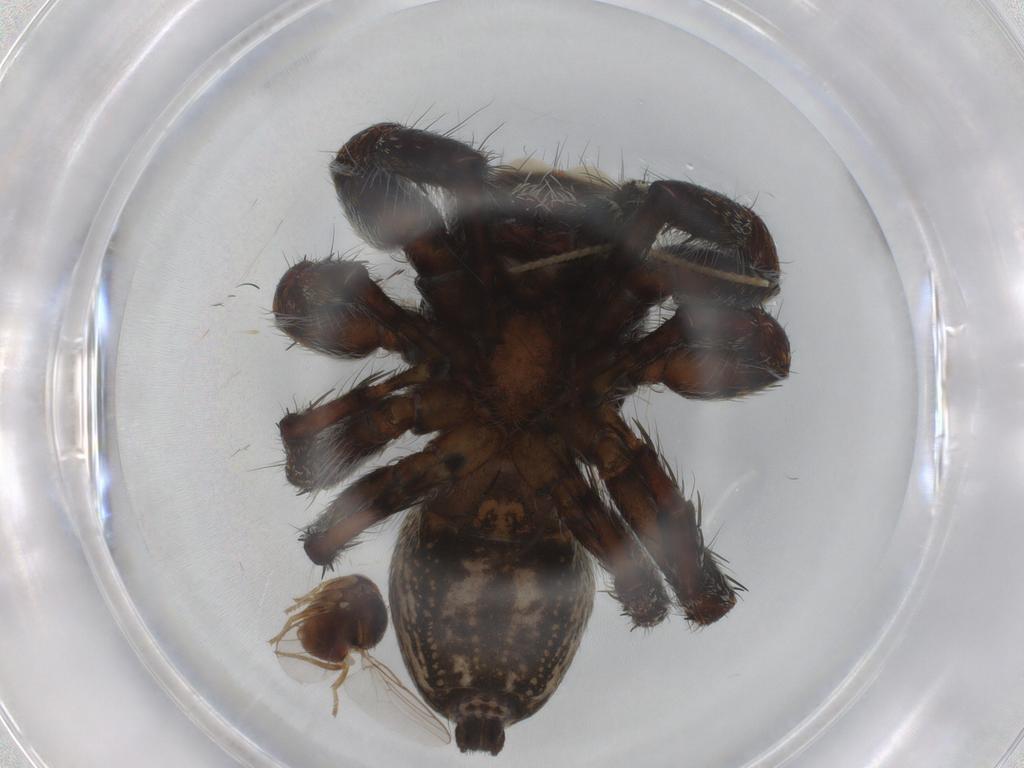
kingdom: Animalia
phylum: Arthropoda
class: Insecta
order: Diptera
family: Chloropidae
